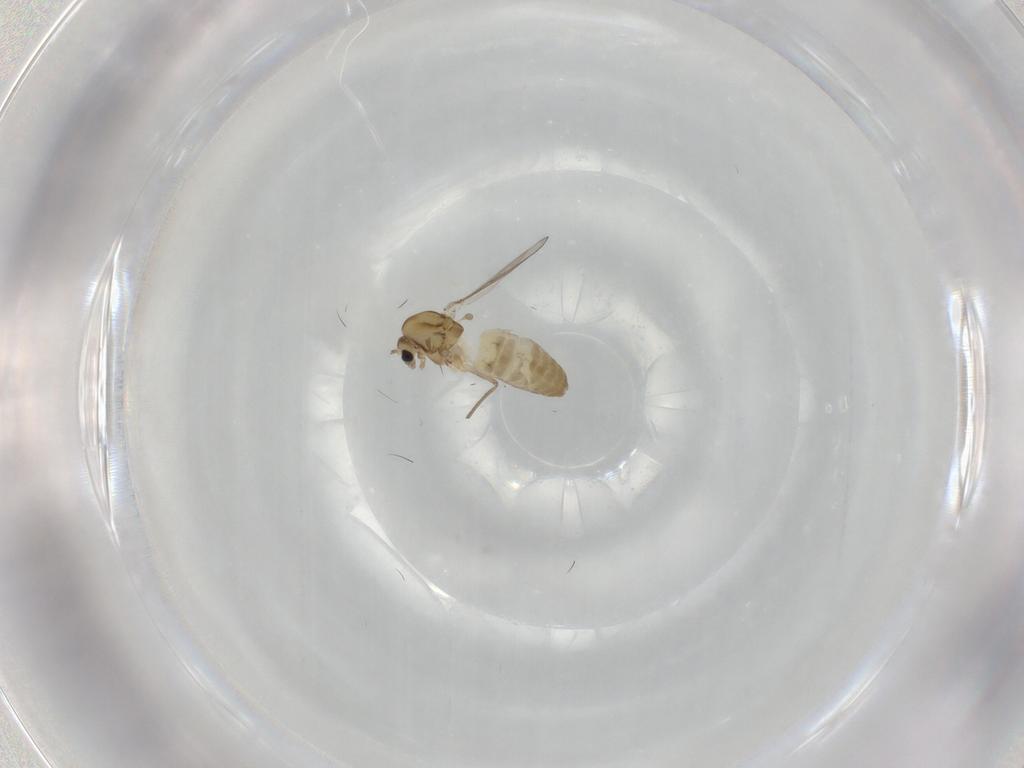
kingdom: Animalia
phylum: Arthropoda
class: Insecta
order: Diptera
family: Chironomidae
